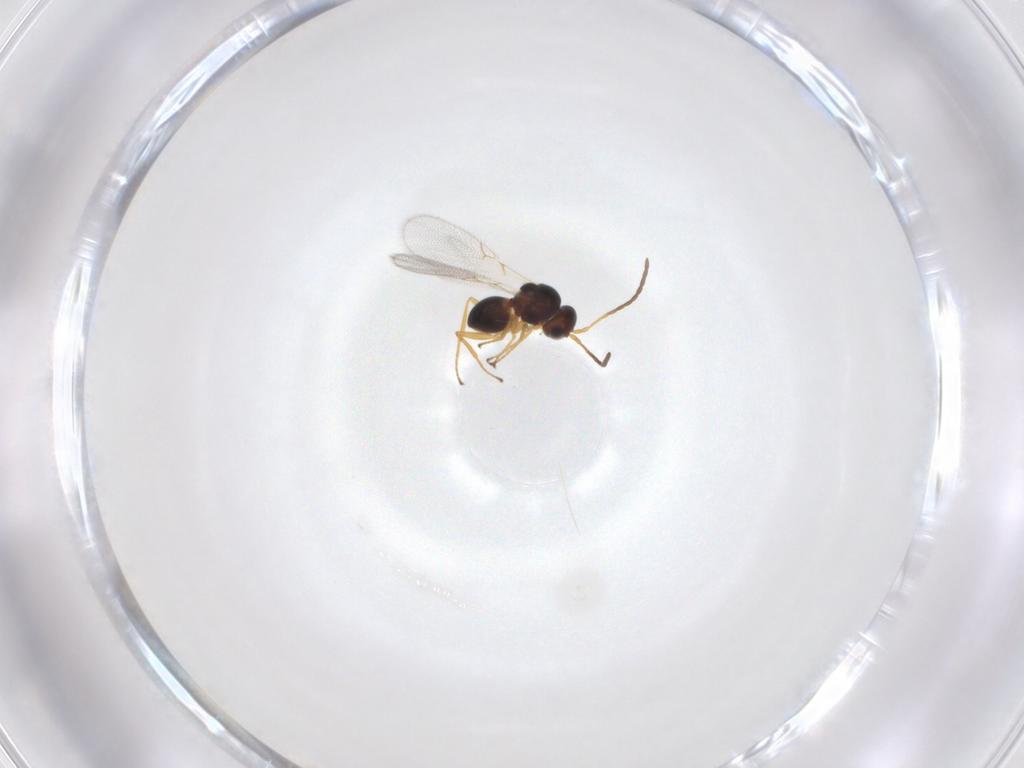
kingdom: Animalia
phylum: Arthropoda
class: Insecta
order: Hymenoptera
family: Figitidae
